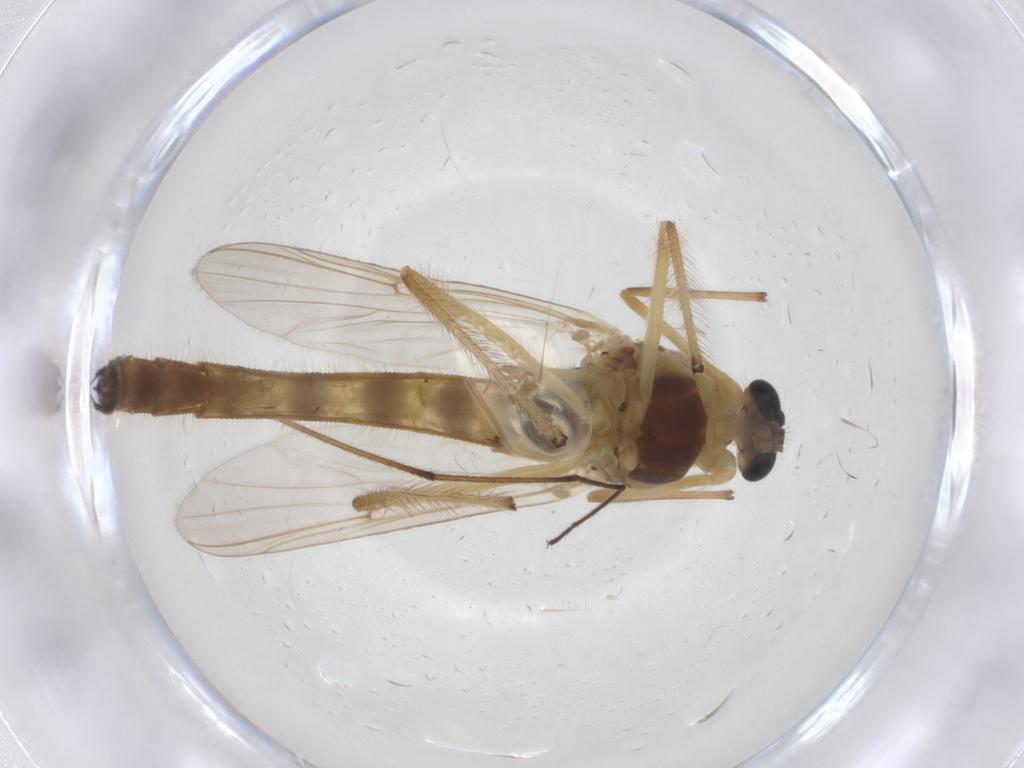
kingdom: Animalia
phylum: Arthropoda
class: Insecta
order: Diptera
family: Chironomidae
